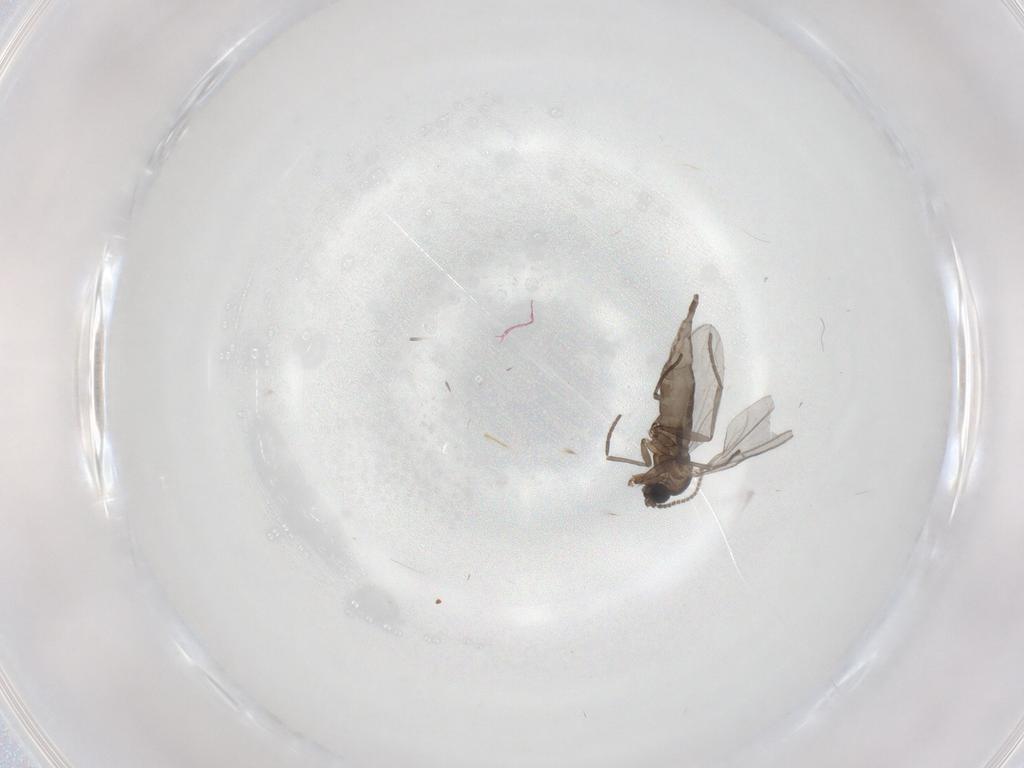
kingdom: Animalia
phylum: Arthropoda
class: Insecta
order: Diptera
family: Sciaridae
